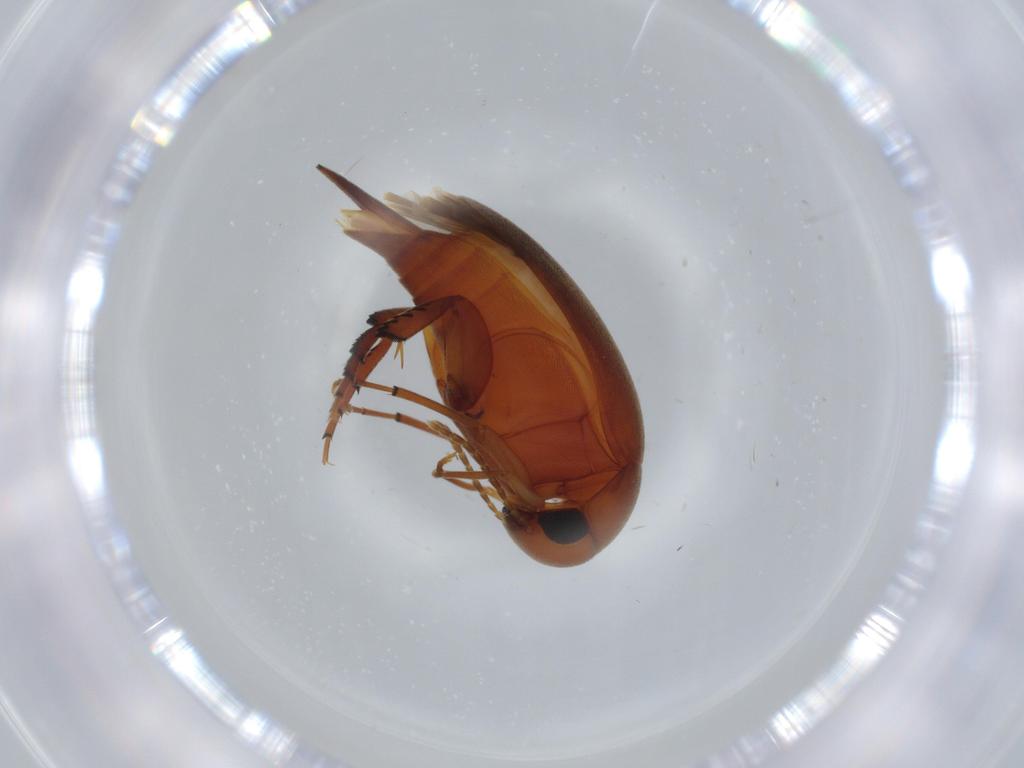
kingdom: Animalia
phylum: Arthropoda
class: Insecta
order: Coleoptera
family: Mordellidae
